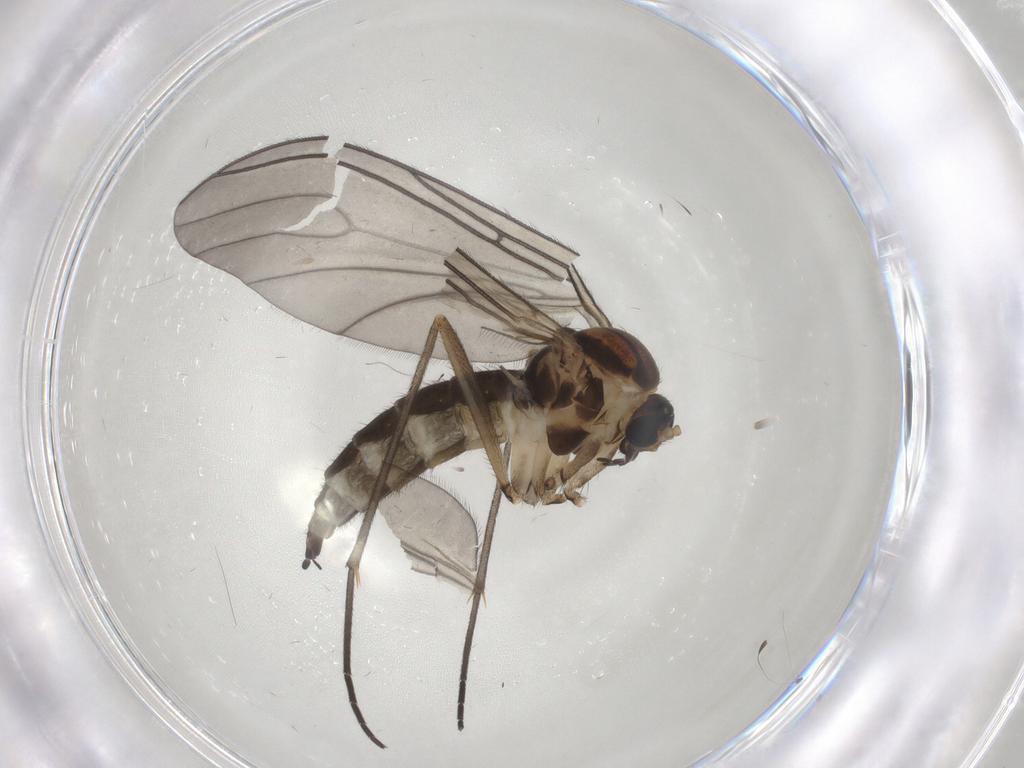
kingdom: Animalia
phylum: Arthropoda
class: Insecta
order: Diptera
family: Sciaridae
